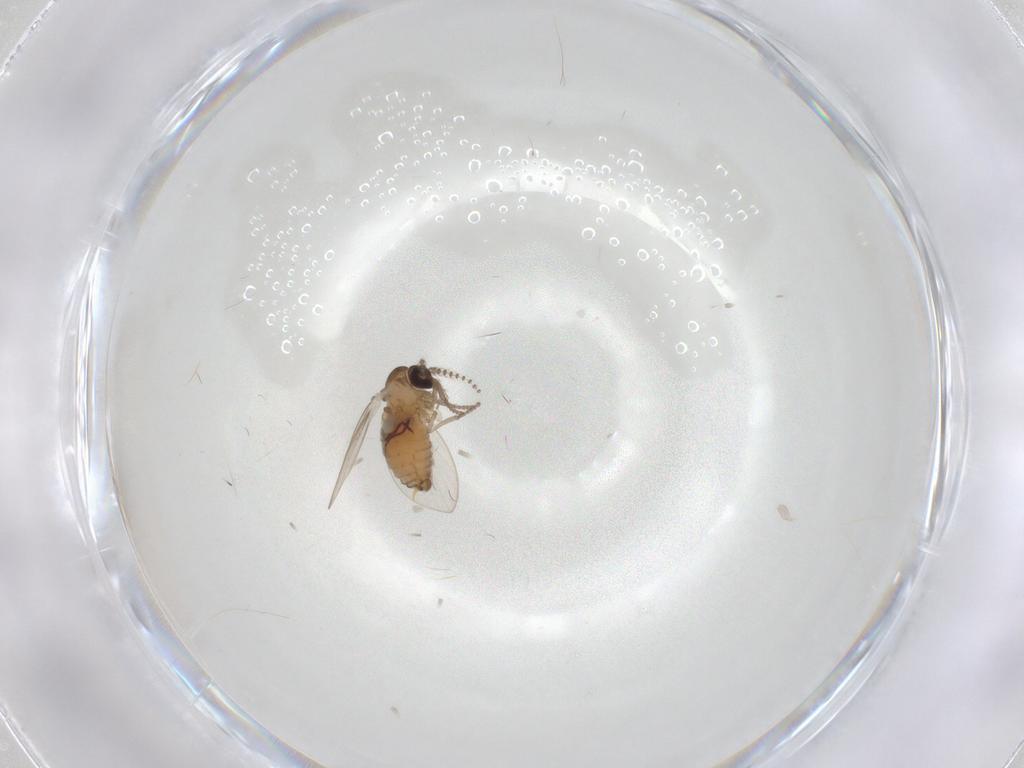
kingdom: Animalia
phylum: Arthropoda
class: Insecta
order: Diptera
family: Psychodidae
